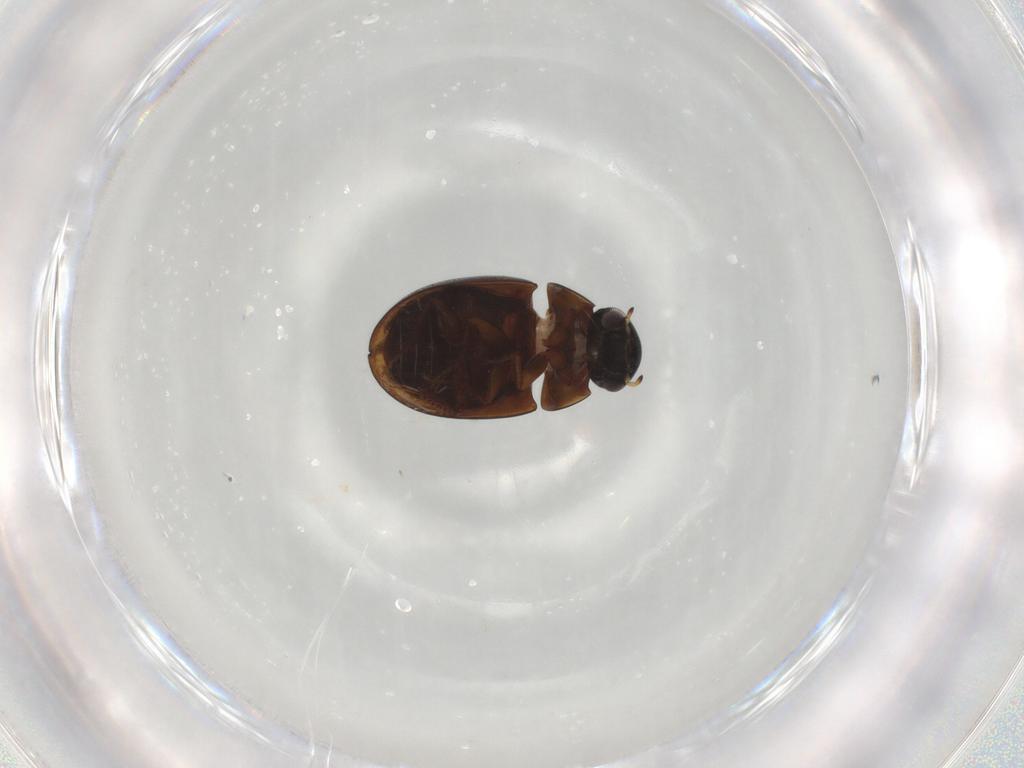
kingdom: Animalia
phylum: Arthropoda
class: Insecta
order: Coleoptera
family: Hydrophilidae
